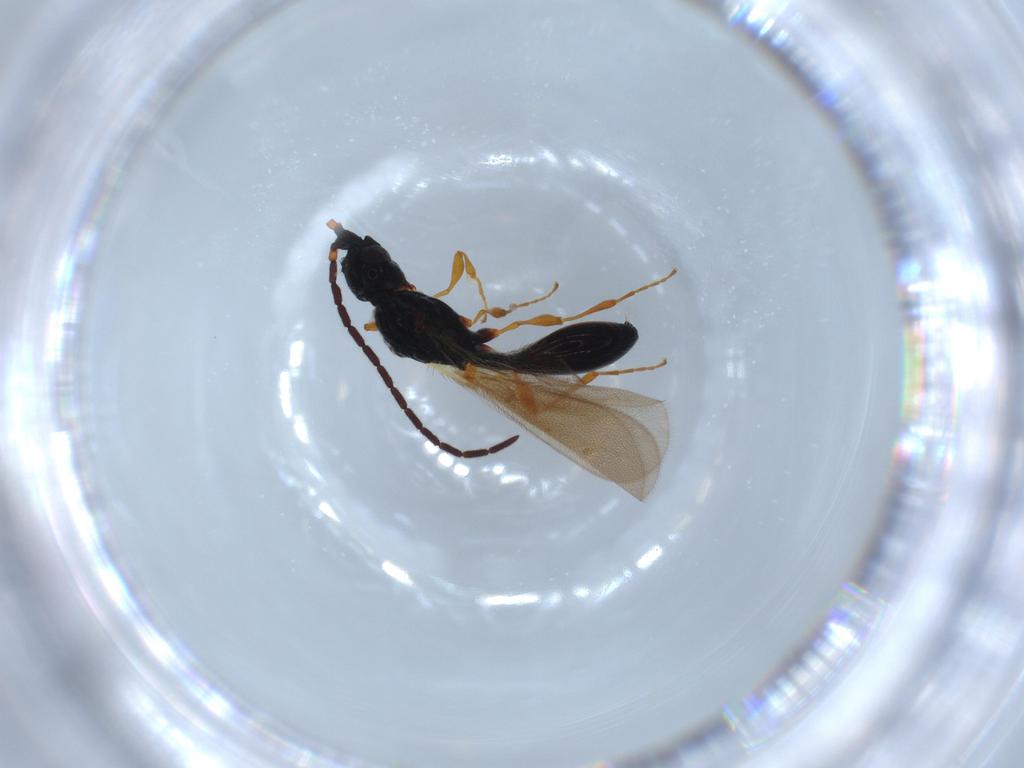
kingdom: Animalia
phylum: Arthropoda
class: Insecta
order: Hymenoptera
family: Diapriidae
